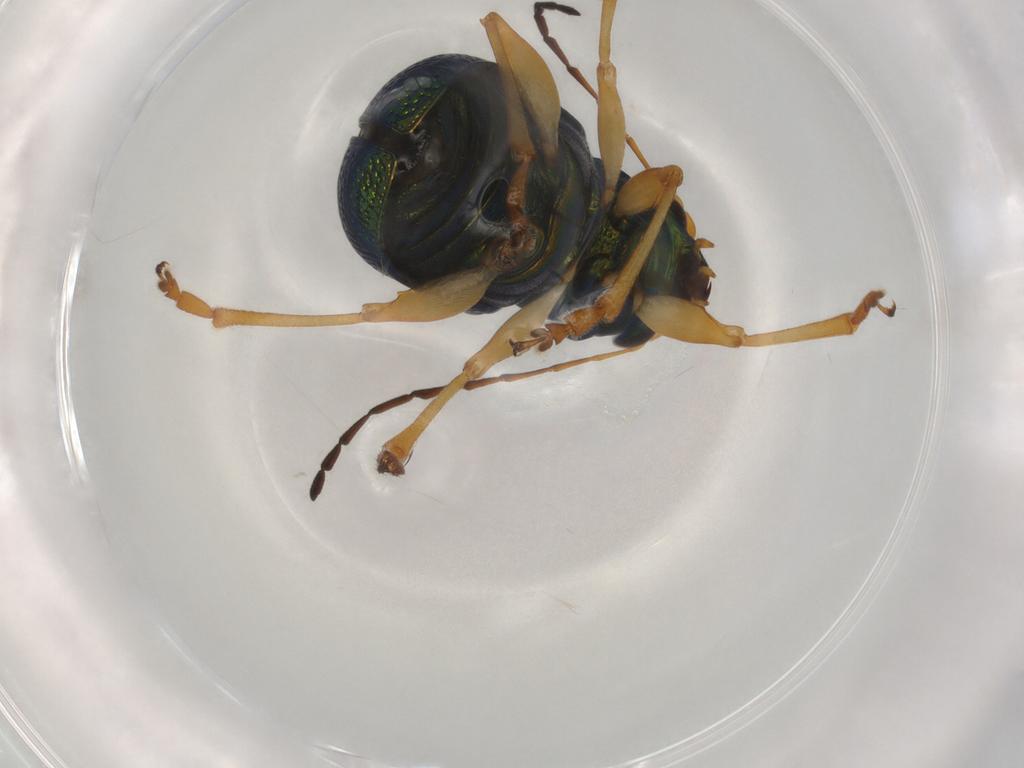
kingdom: Animalia
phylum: Arthropoda
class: Insecta
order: Coleoptera
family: Chrysomelidae
